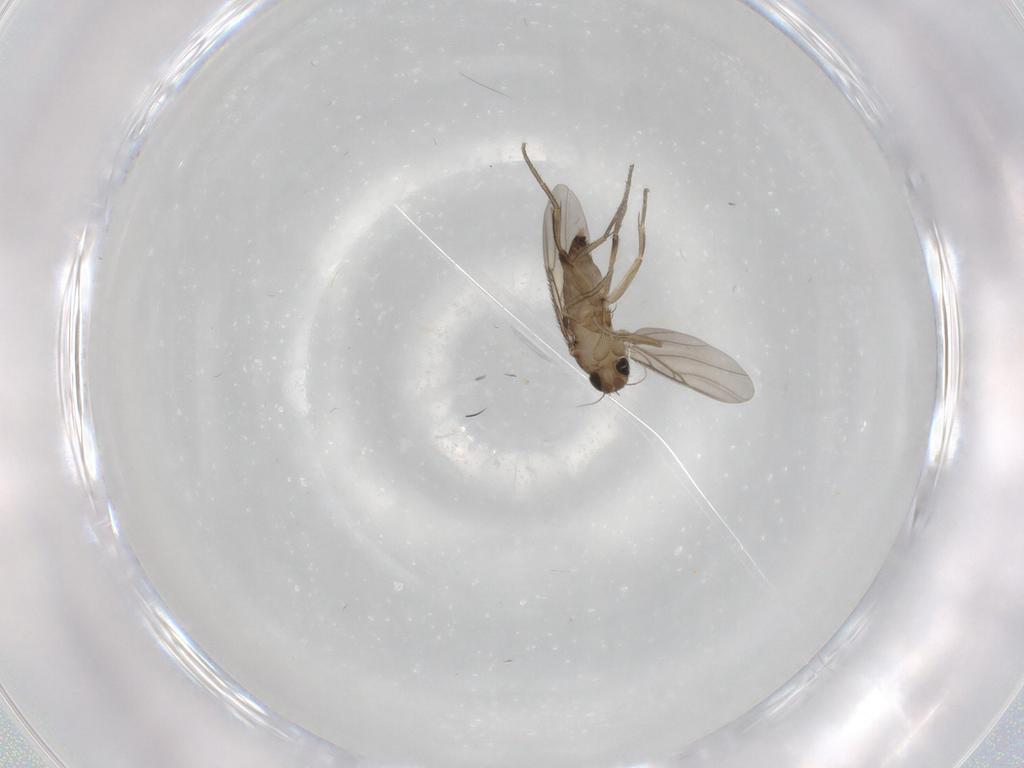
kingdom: Animalia
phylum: Arthropoda
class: Insecta
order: Diptera
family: Phoridae
